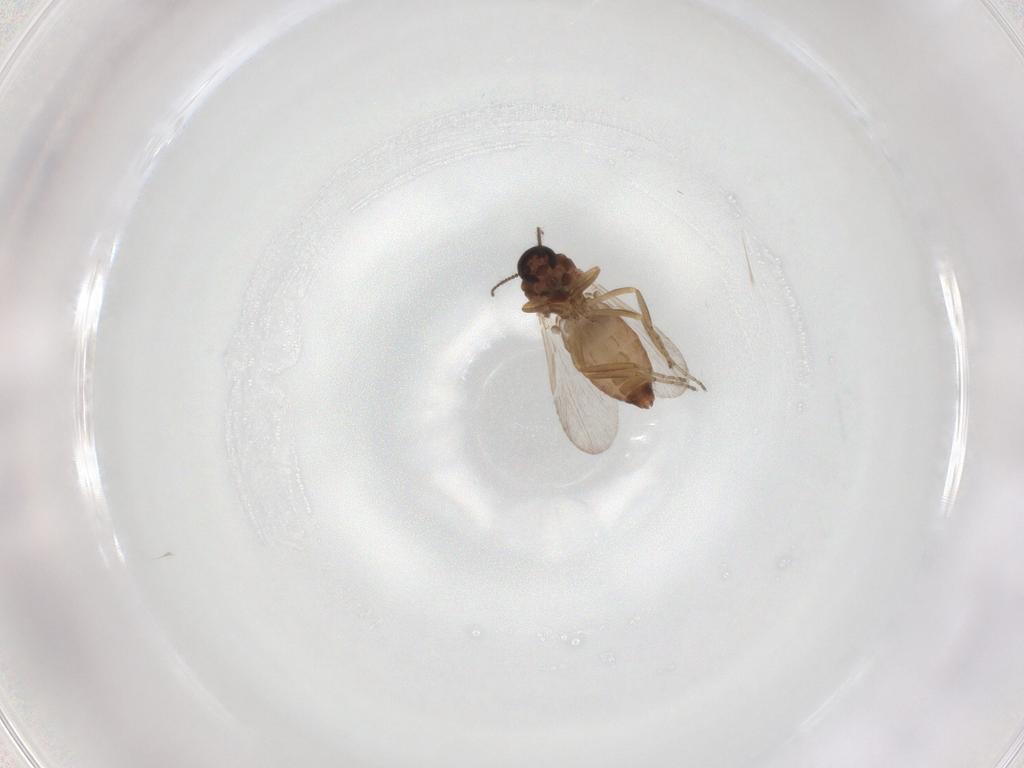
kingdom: Animalia
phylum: Arthropoda
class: Insecta
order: Diptera
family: Ceratopogonidae
